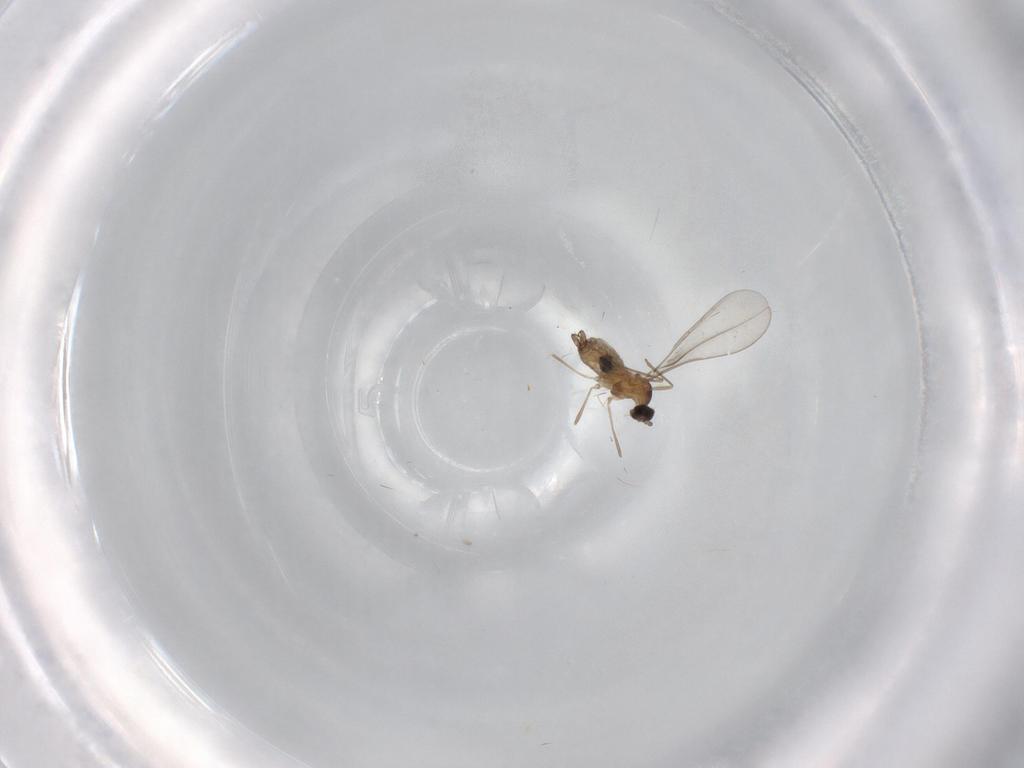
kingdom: Animalia
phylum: Arthropoda
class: Insecta
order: Diptera
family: Cecidomyiidae
